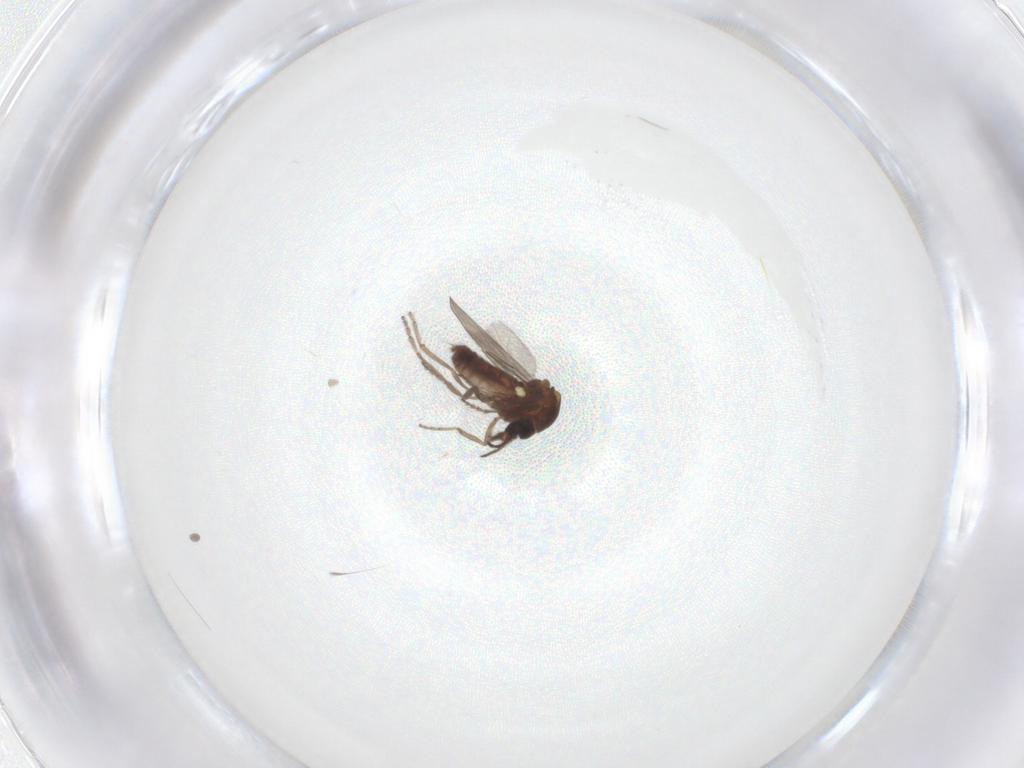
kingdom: Animalia
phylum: Arthropoda
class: Insecta
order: Diptera
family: Ceratopogonidae
